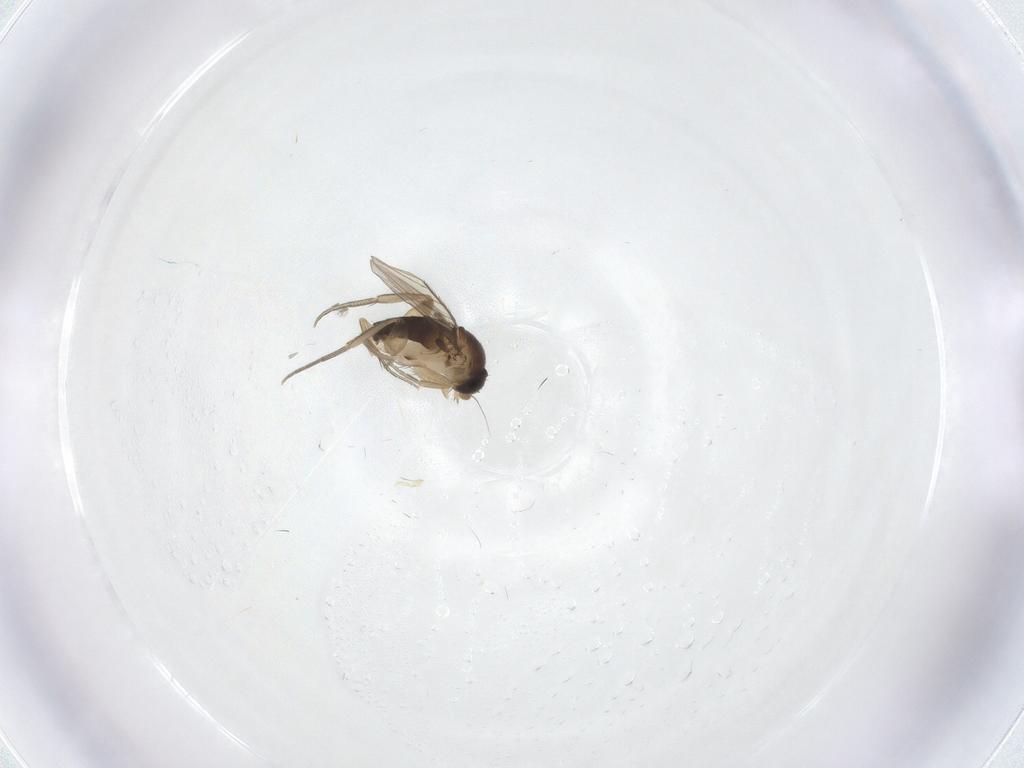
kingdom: Animalia
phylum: Arthropoda
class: Insecta
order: Diptera
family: Phoridae
